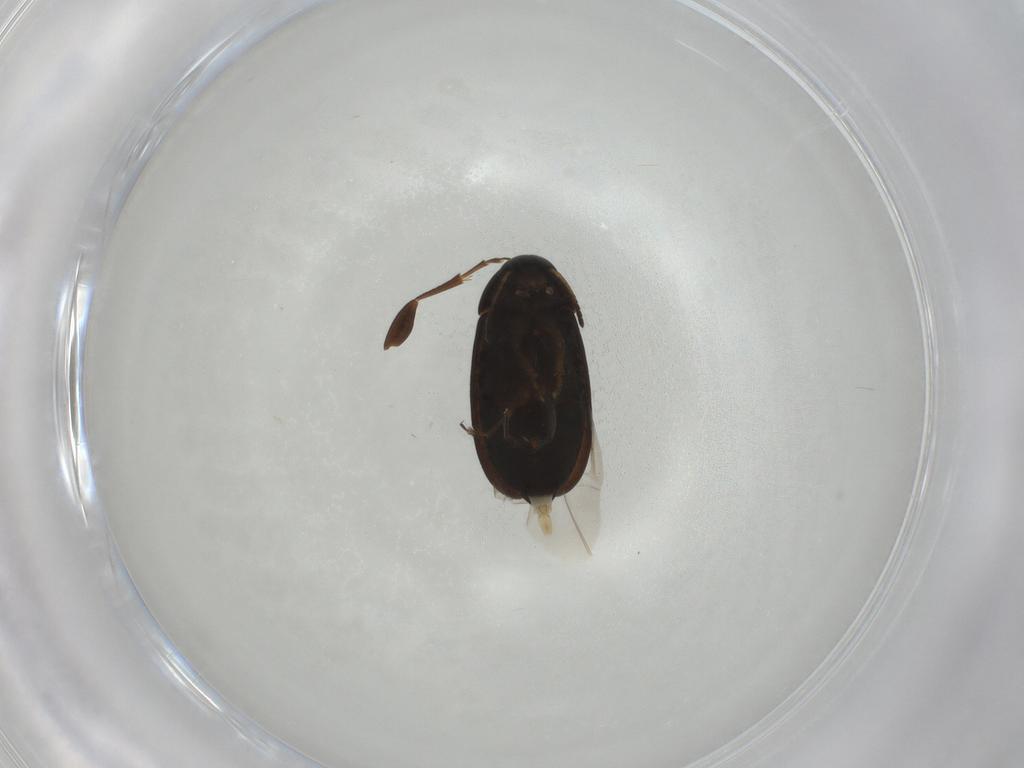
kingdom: Animalia
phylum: Arthropoda
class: Insecta
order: Coleoptera
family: Scraptiidae
